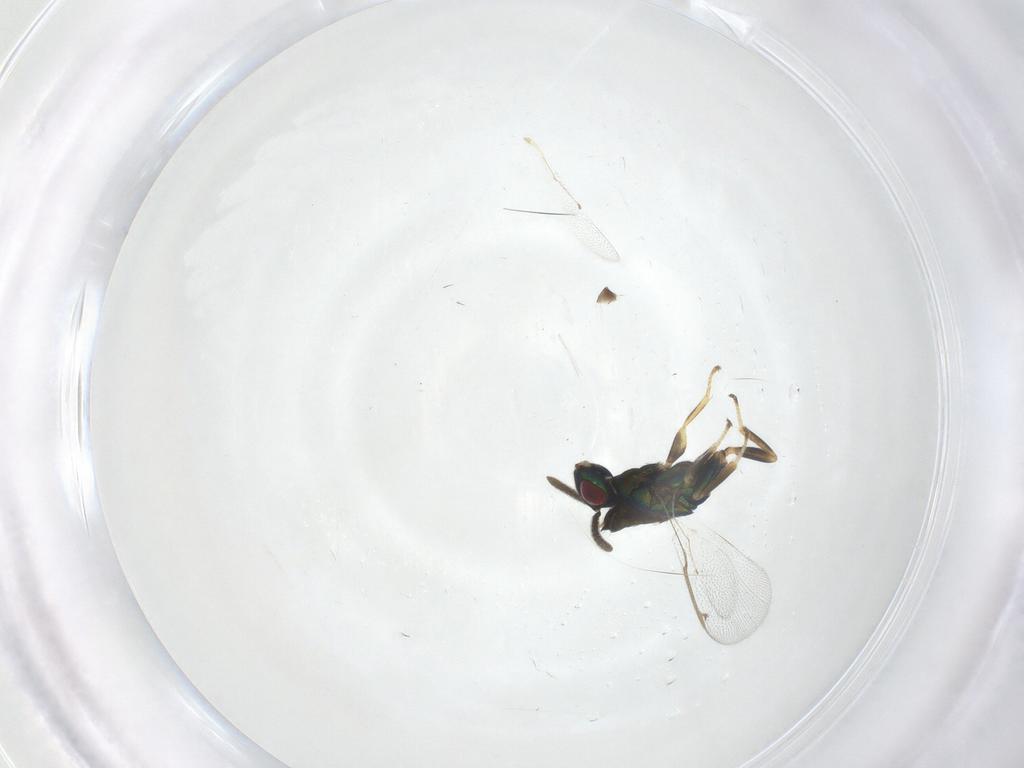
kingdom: Animalia
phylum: Arthropoda
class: Insecta
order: Hymenoptera
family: Torymidae
